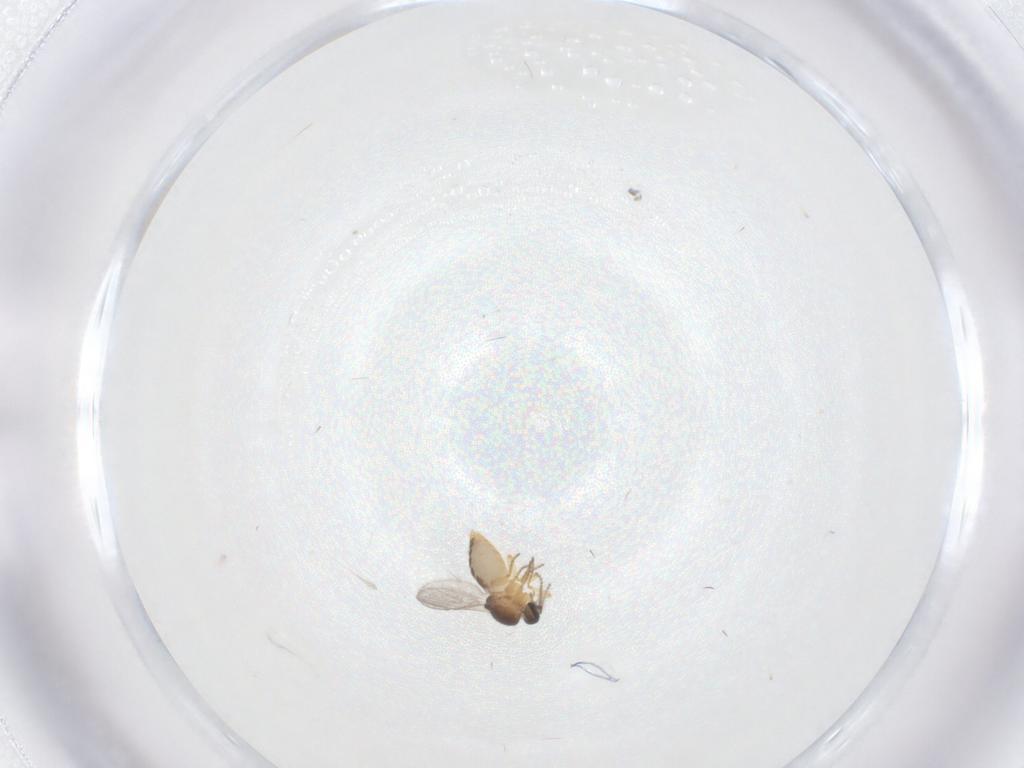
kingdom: Animalia
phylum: Arthropoda
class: Insecta
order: Diptera
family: Ceratopogonidae
